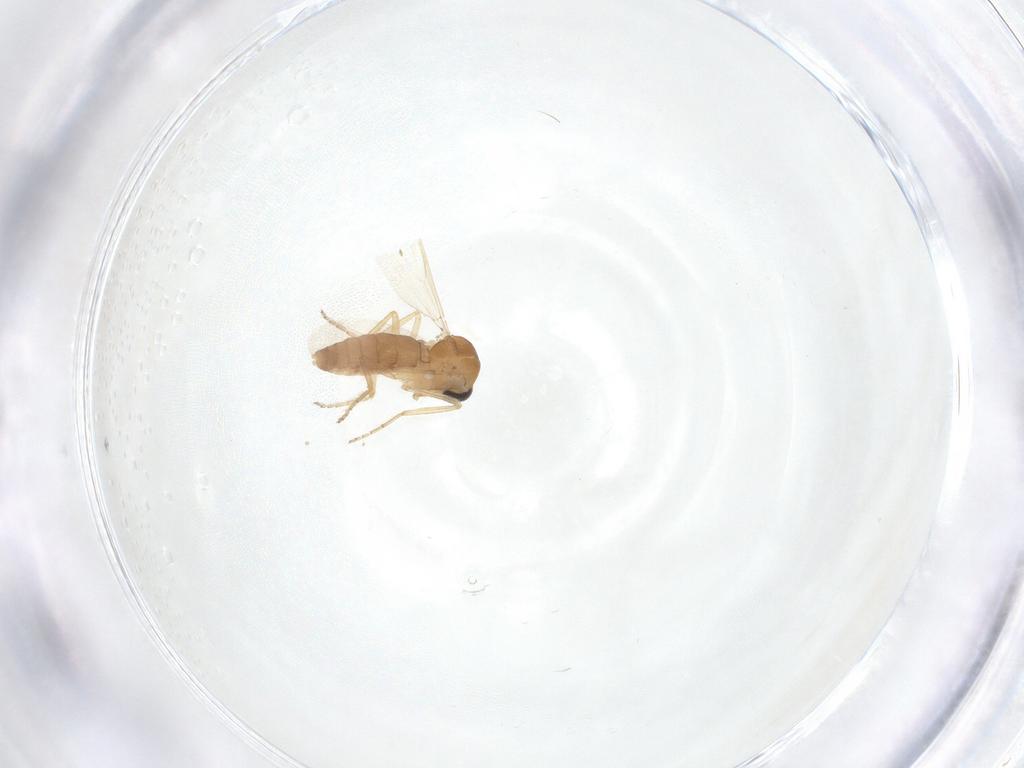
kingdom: Animalia
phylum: Arthropoda
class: Insecta
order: Diptera
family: Ceratopogonidae
